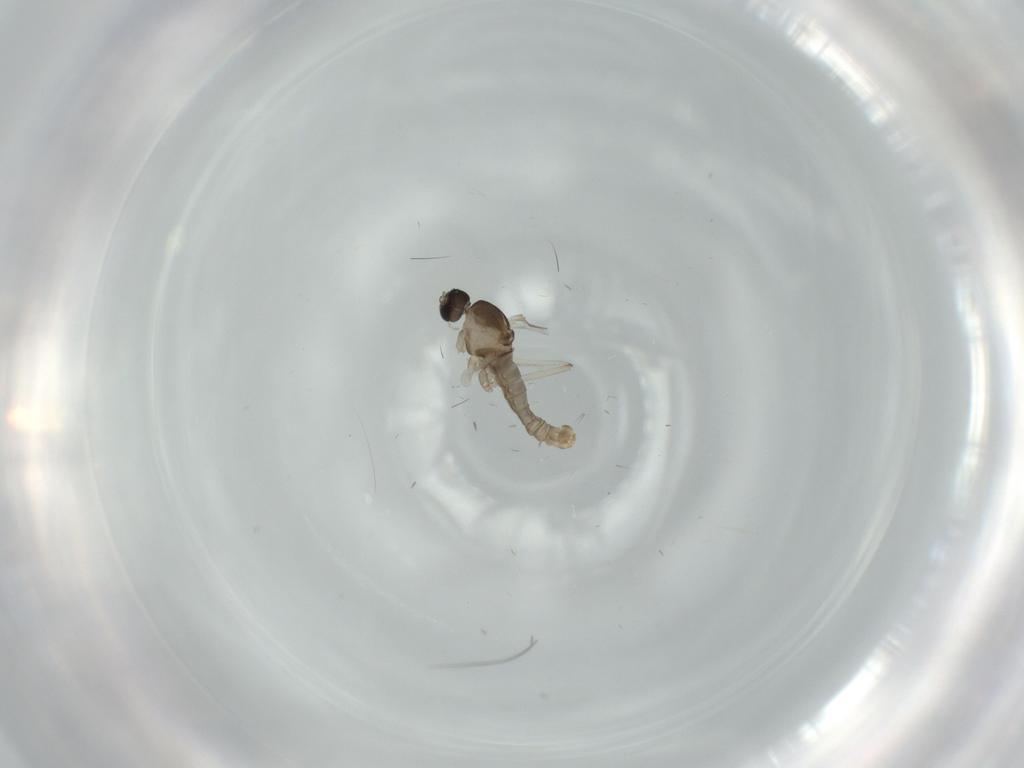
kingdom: Animalia
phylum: Arthropoda
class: Insecta
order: Diptera
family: Cecidomyiidae
